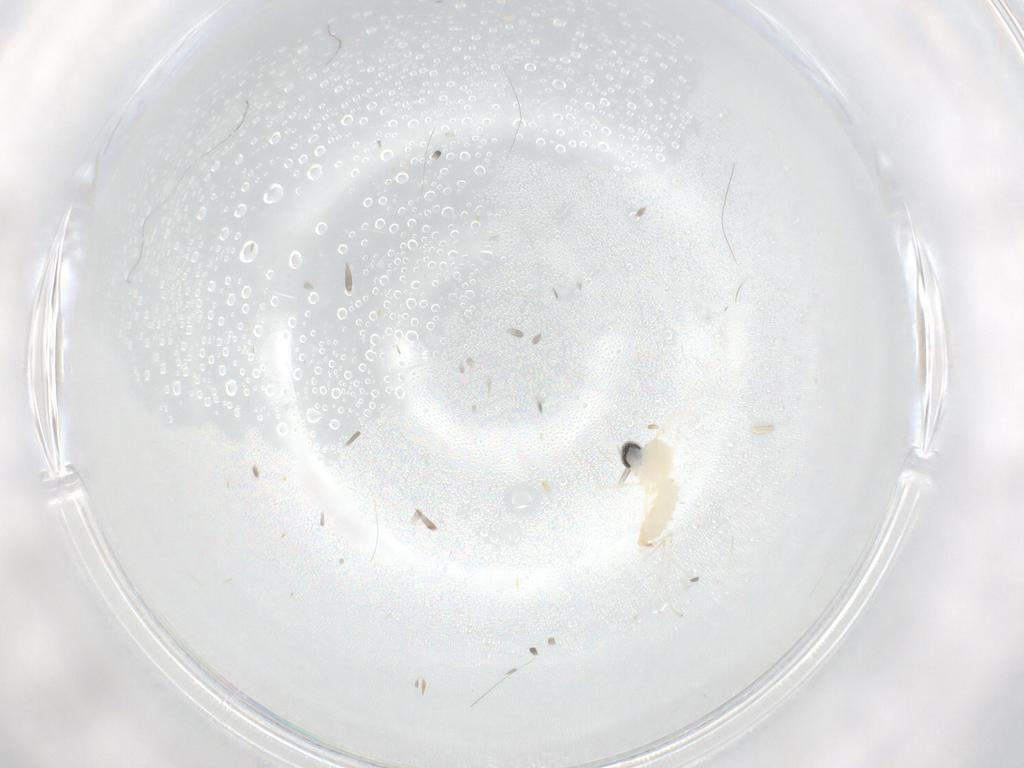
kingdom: Animalia
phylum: Arthropoda
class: Insecta
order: Diptera
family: Cecidomyiidae
